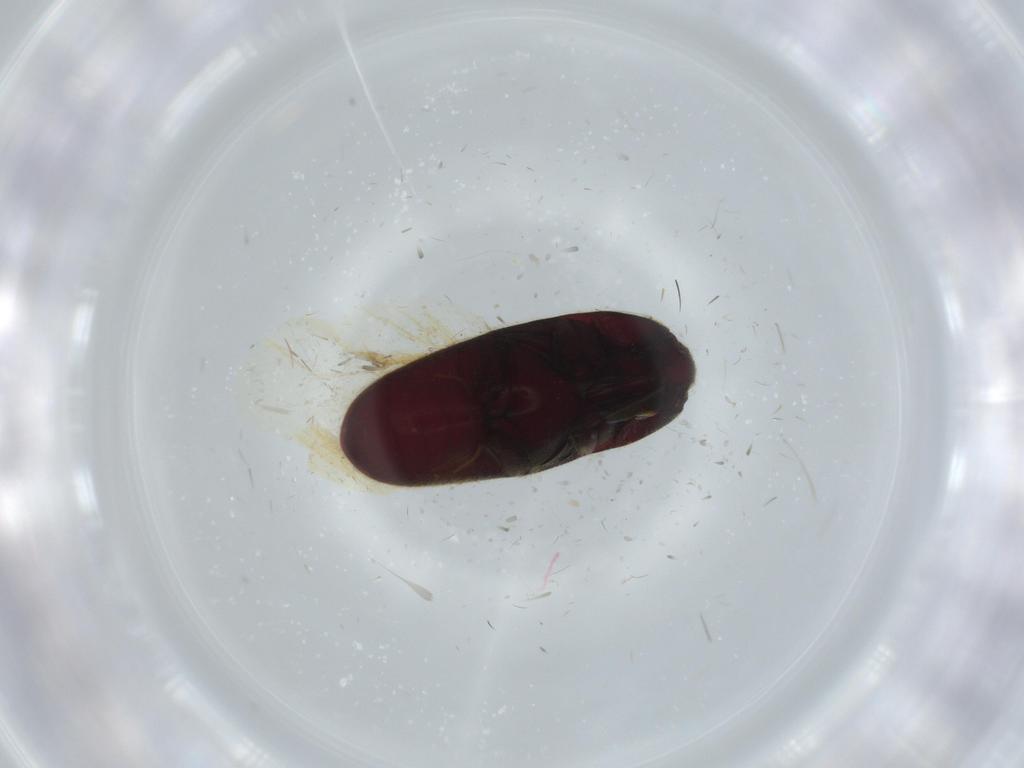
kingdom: Animalia
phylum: Arthropoda
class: Insecta
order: Coleoptera
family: Throscidae
